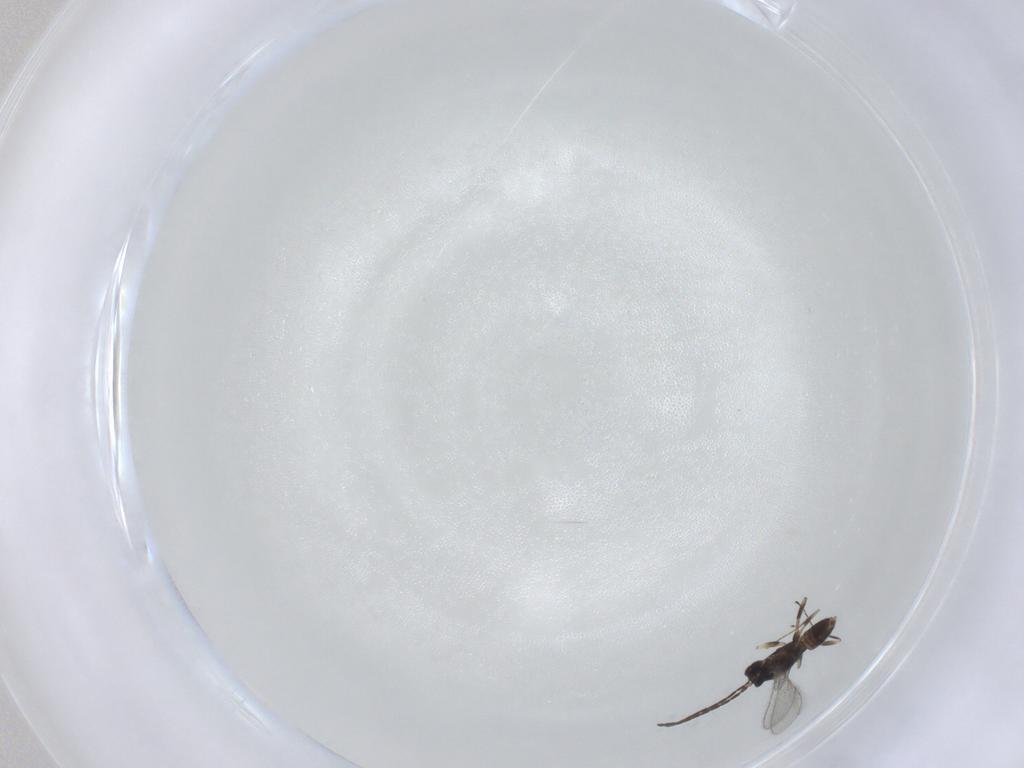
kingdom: Animalia
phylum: Arthropoda
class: Insecta
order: Hymenoptera
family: Mymaridae
